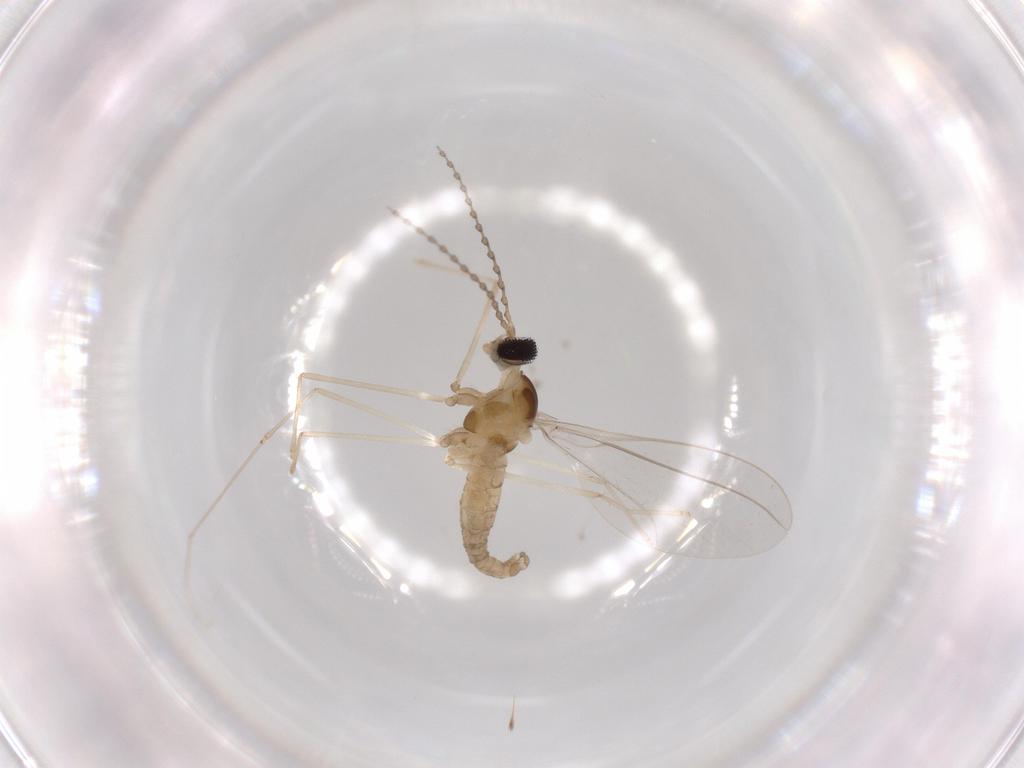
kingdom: Animalia
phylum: Arthropoda
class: Insecta
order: Diptera
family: Cecidomyiidae
